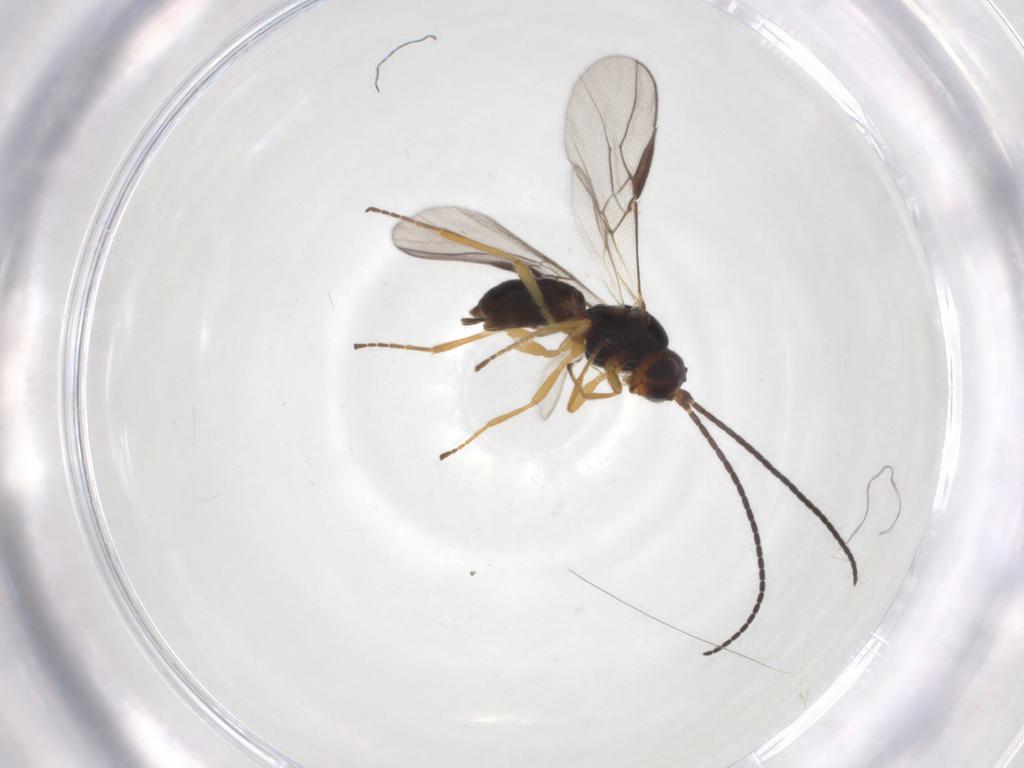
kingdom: Animalia
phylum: Arthropoda
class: Insecta
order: Hymenoptera
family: Braconidae
